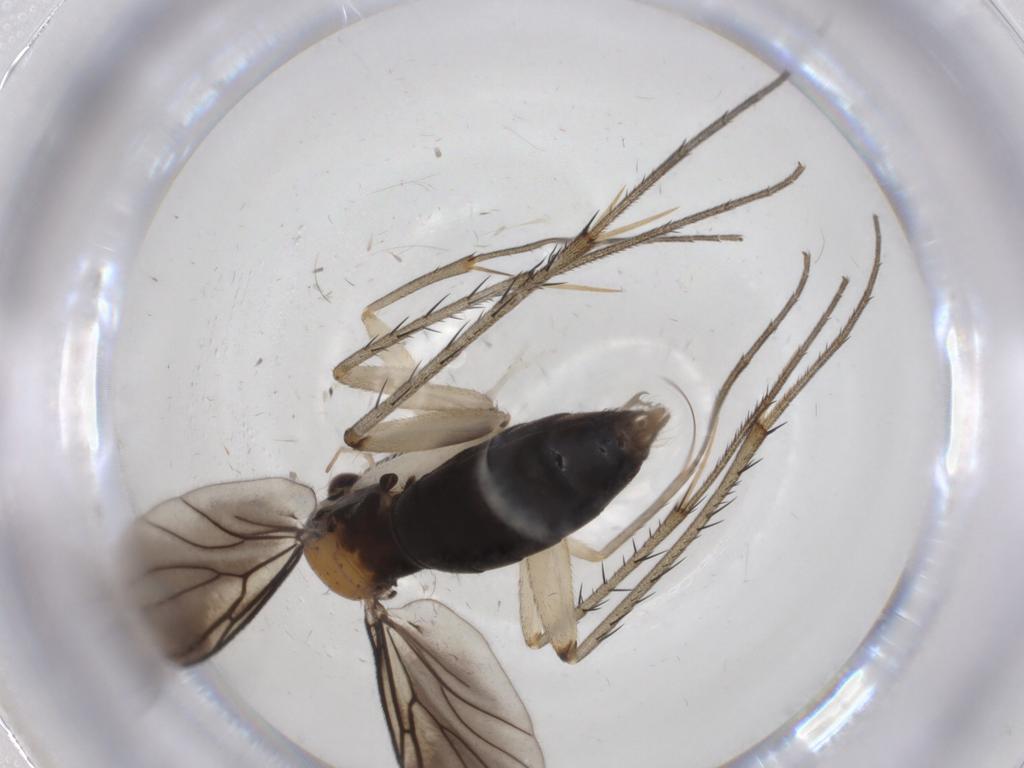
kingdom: Animalia
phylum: Arthropoda
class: Insecta
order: Diptera
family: Mycetophilidae
